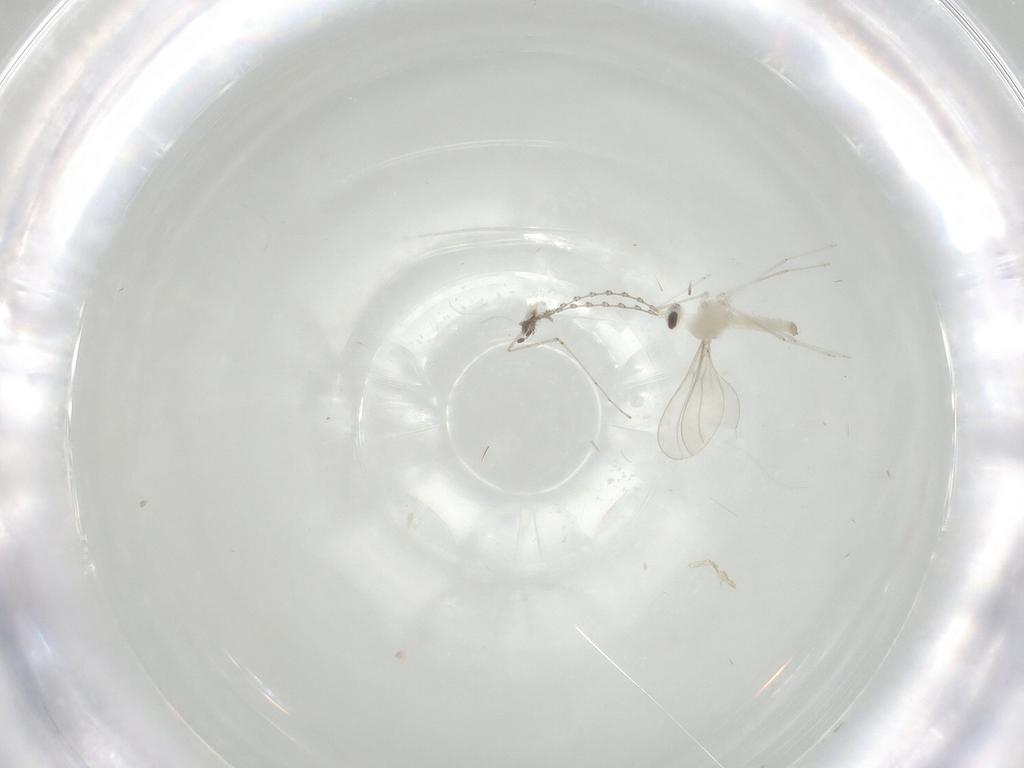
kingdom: Animalia
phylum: Arthropoda
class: Insecta
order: Diptera
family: Cecidomyiidae
